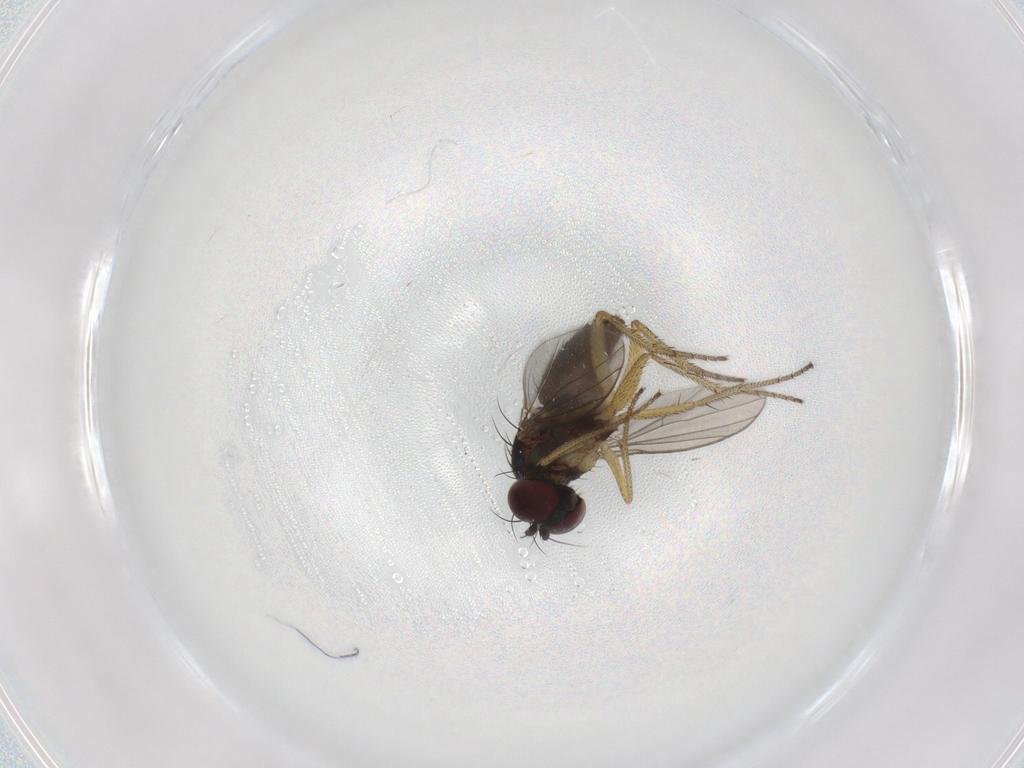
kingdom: Animalia
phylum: Arthropoda
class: Insecta
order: Diptera
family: Dolichopodidae
